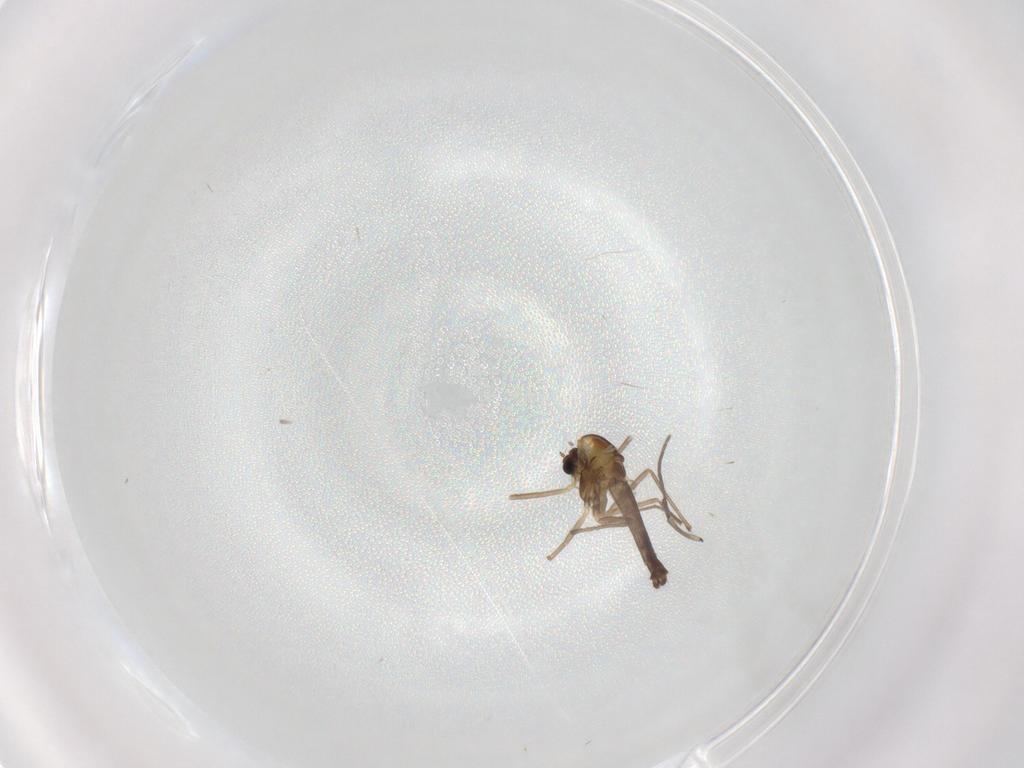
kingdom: Animalia
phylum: Arthropoda
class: Insecta
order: Diptera
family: Chironomidae
